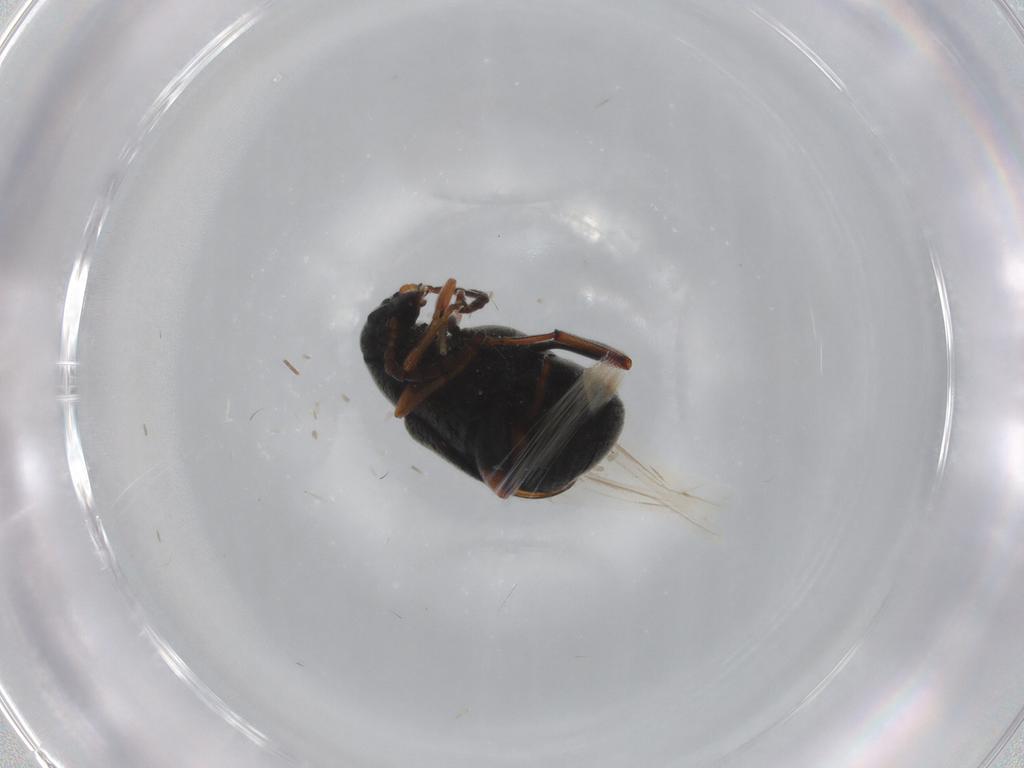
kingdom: Animalia
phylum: Arthropoda
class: Insecta
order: Coleoptera
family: Chrysomelidae
